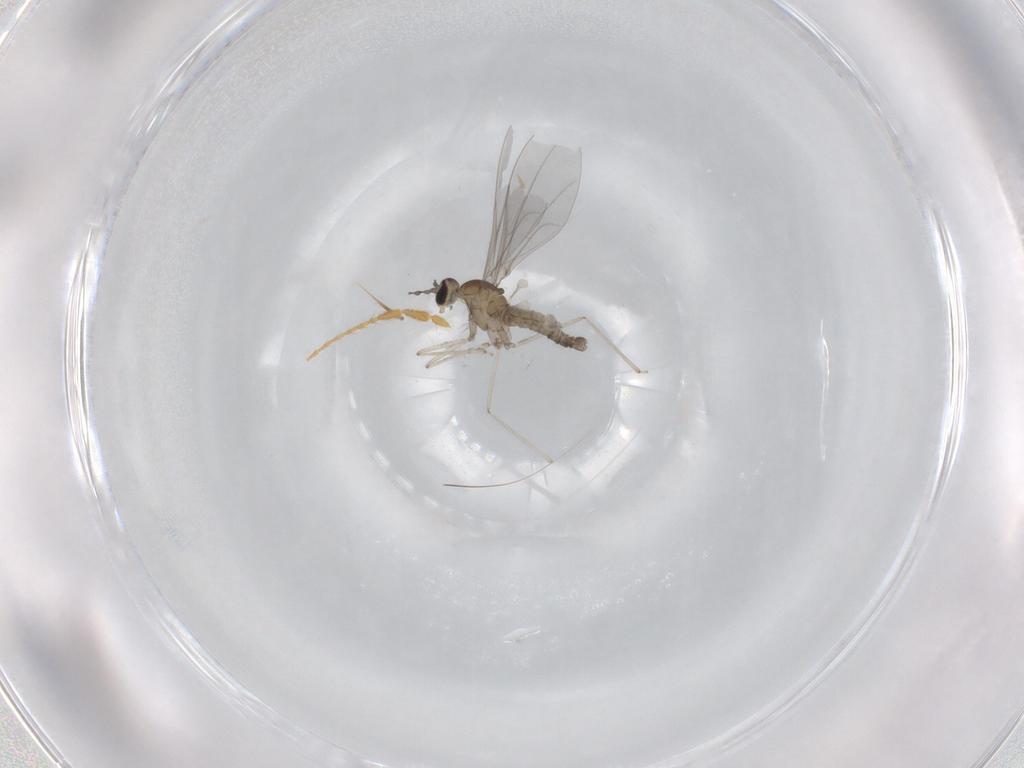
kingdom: Animalia
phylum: Arthropoda
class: Insecta
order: Diptera
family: Cecidomyiidae
